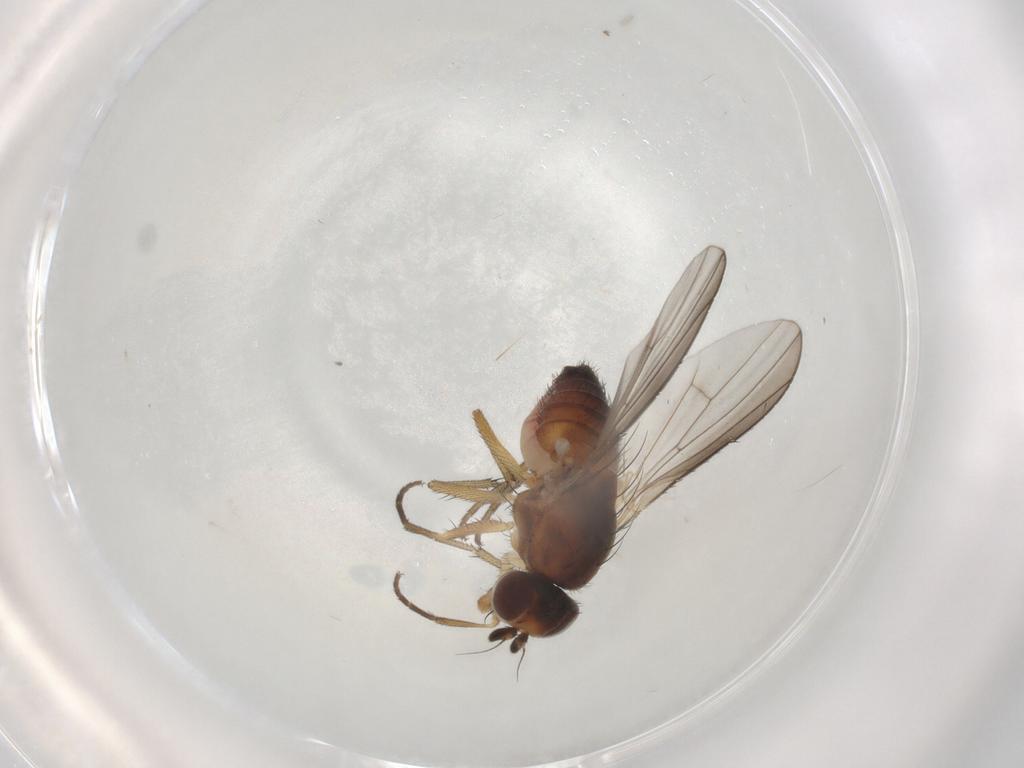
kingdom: Animalia
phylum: Arthropoda
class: Insecta
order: Diptera
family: Heleomyzidae
